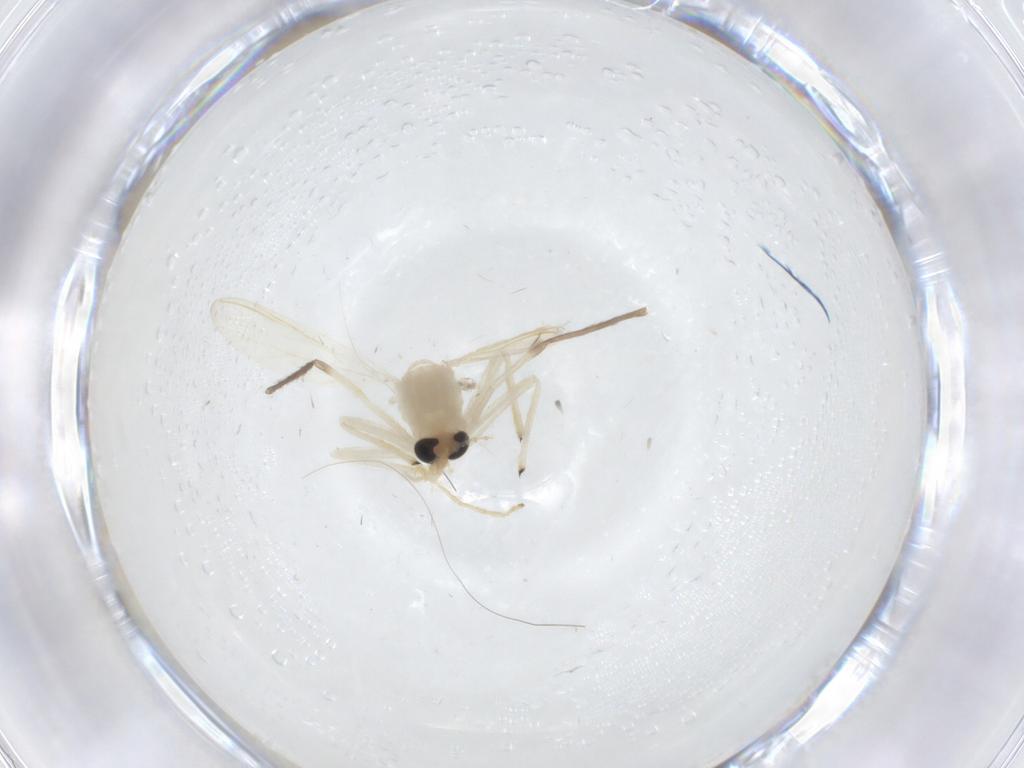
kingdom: Animalia
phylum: Arthropoda
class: Insecta
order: Diptera
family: Chironomidae
